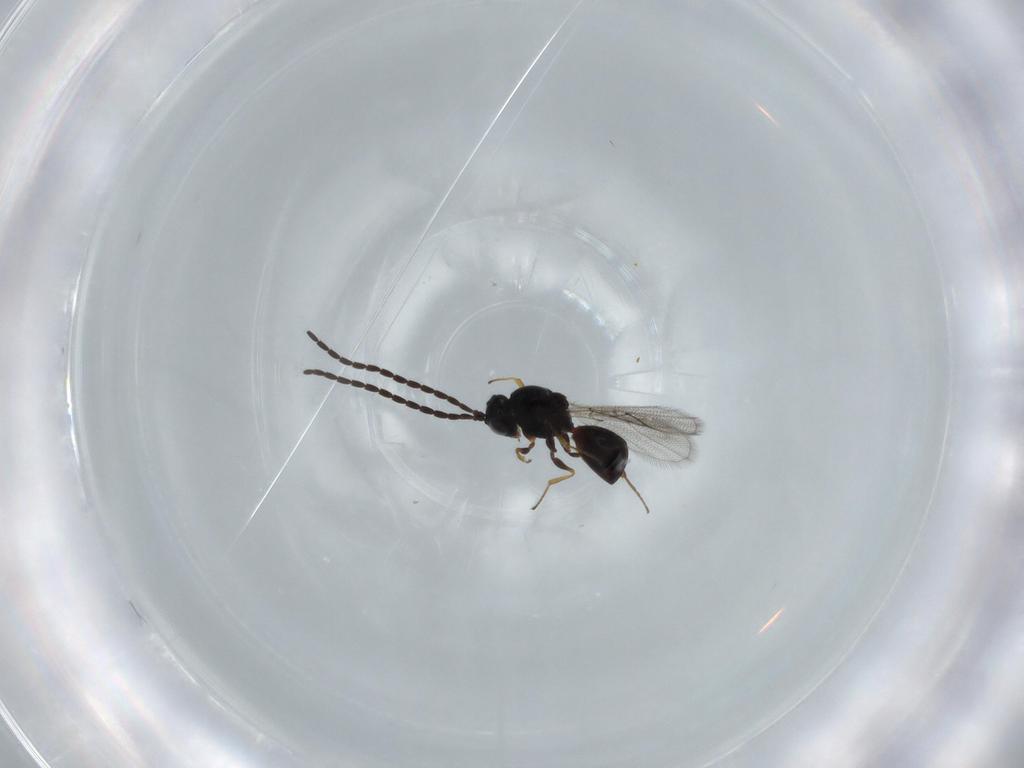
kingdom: Animalia
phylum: Arthropoda
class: Insecta
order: Hymenoptera
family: Figitidae
